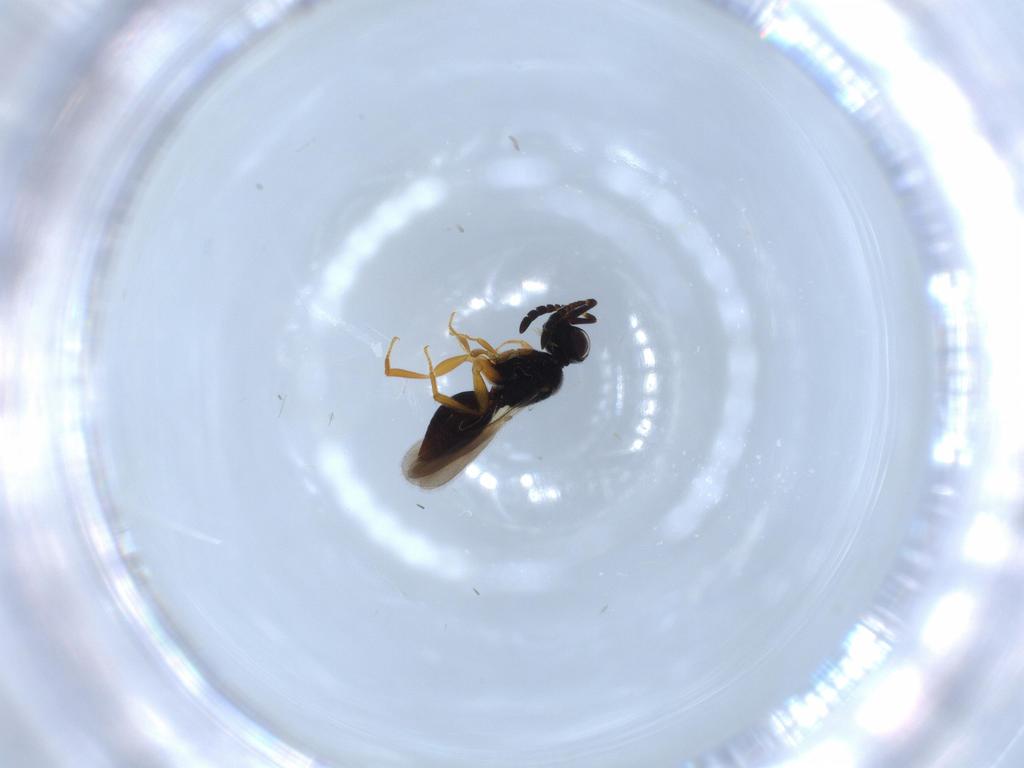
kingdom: Animalia
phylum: Arthropoda
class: Insecta
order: Hymenoptera
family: Ceraphronidae
